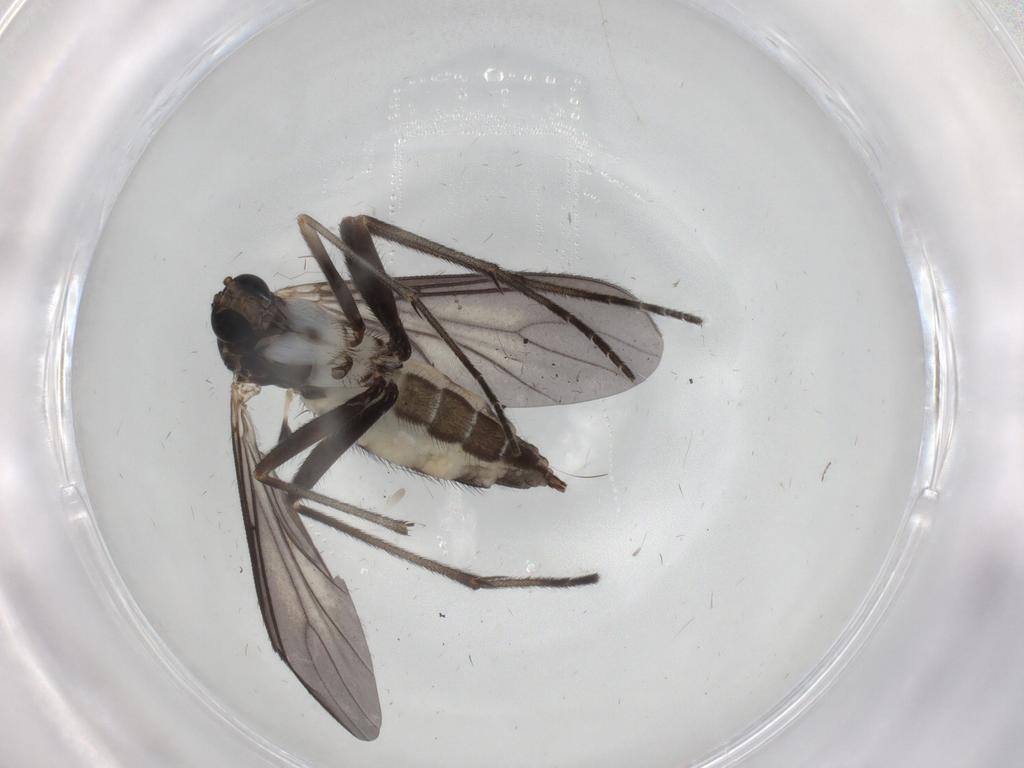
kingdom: Animalia
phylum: Arthropoda
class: Insecta
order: Diptera
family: Sciaridae
